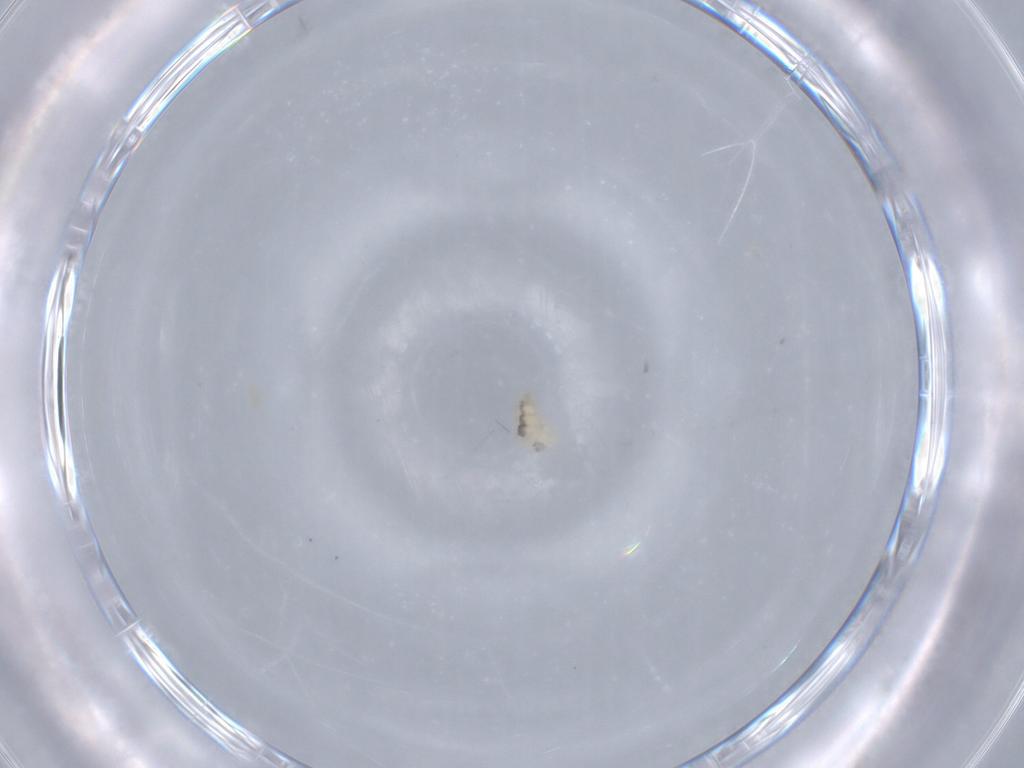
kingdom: Animalia
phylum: Arthropoda
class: Insecta
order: Diptera
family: Cecidomyiidae
